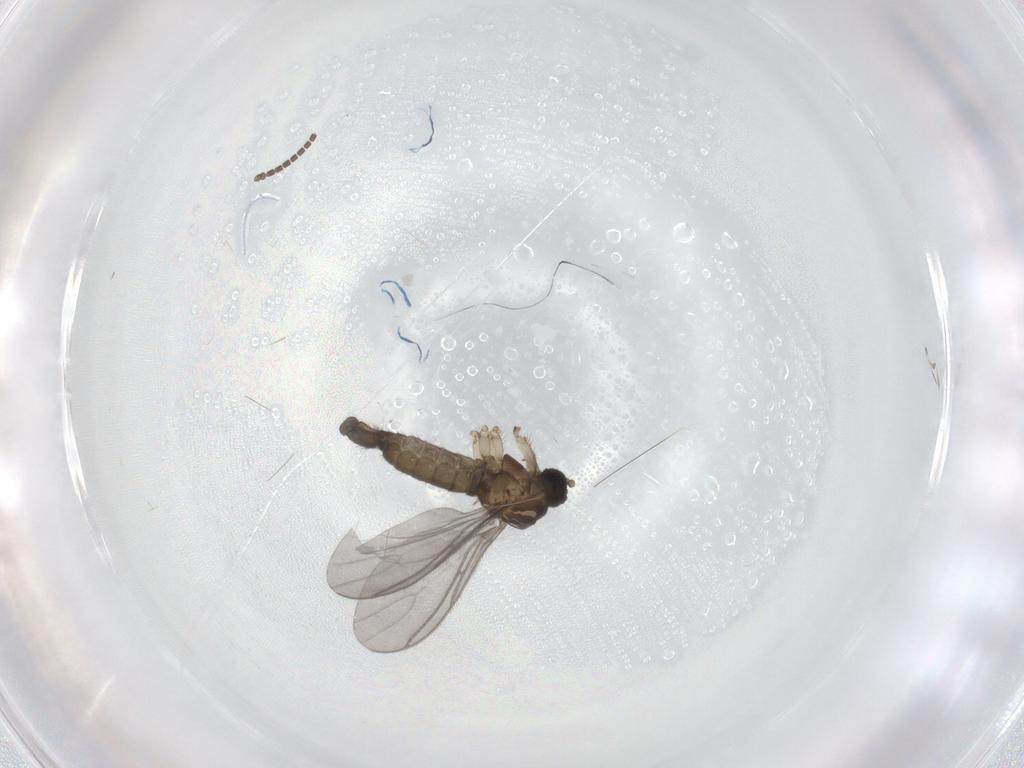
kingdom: Animalia
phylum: Arthropoda
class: Insecta
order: Diptera
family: Sciaridae
